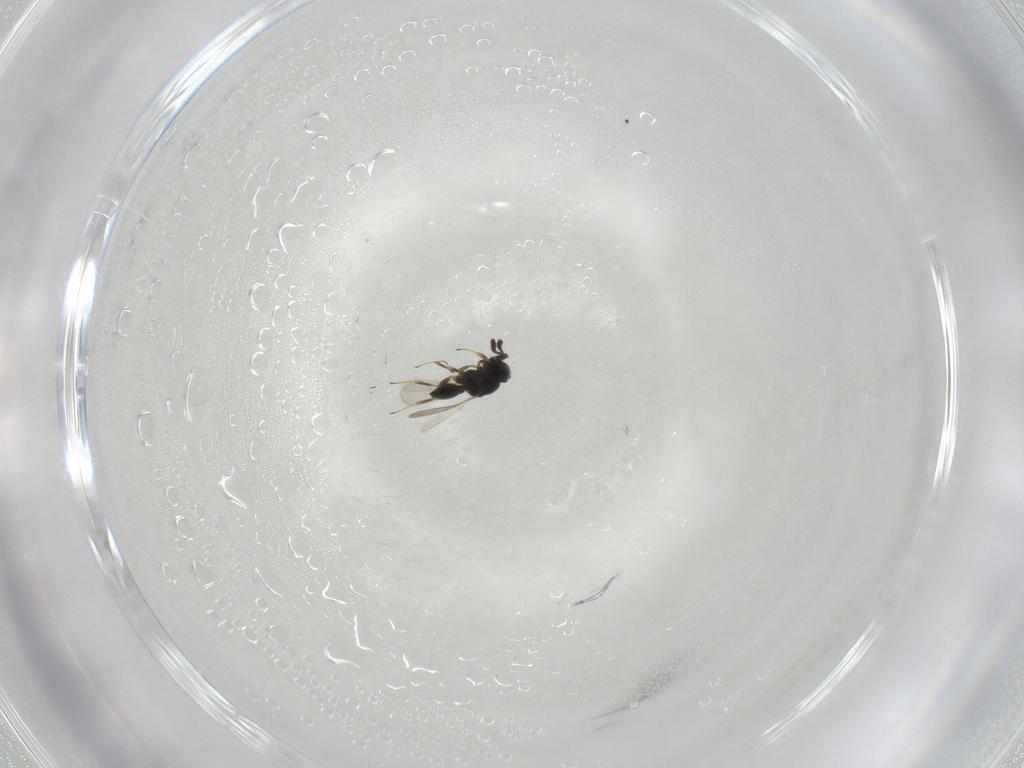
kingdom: Animalia
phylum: Arthropoda
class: Insecta
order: Hymenoptera
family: Scelionidae
